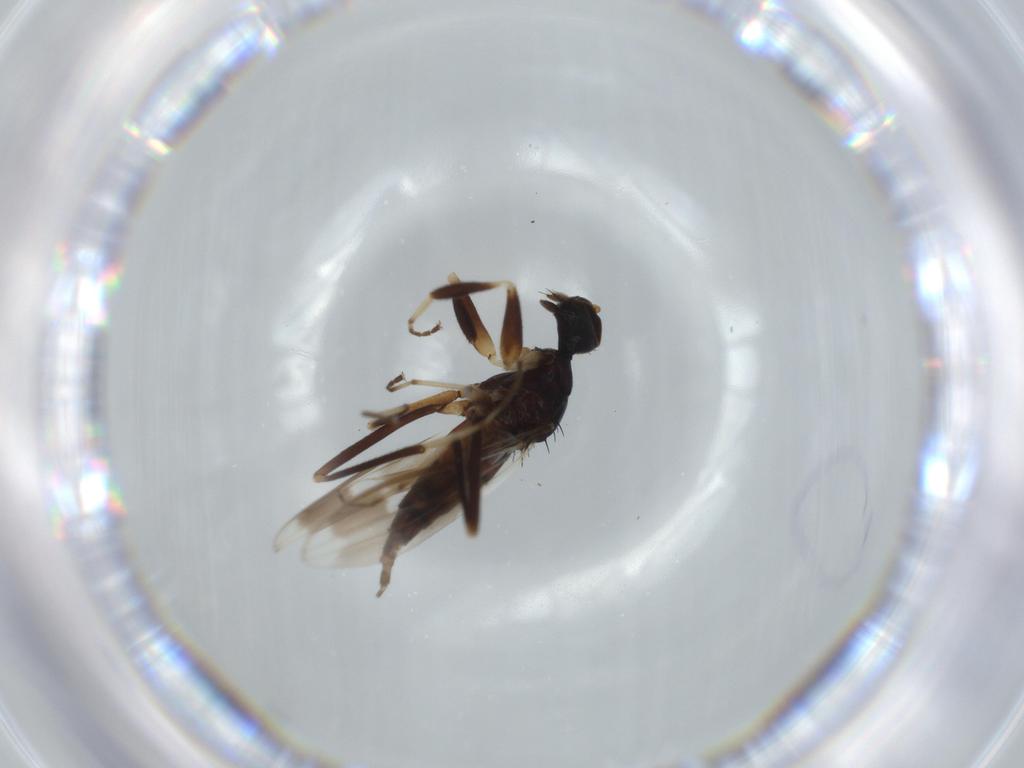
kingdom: Animalia
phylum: Arthropoda
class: Insecta
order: Diptera
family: Hybotidae
